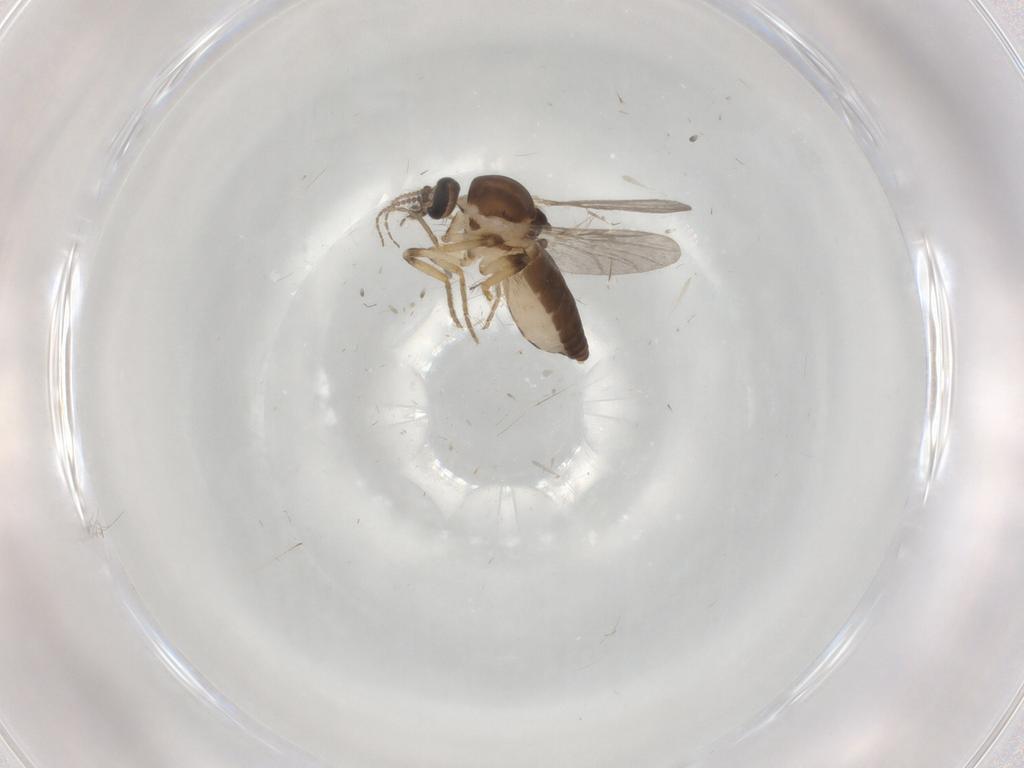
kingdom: Animalia
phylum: Arthropoda
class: Insecta
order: Diptera
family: Ceratopogonidae
